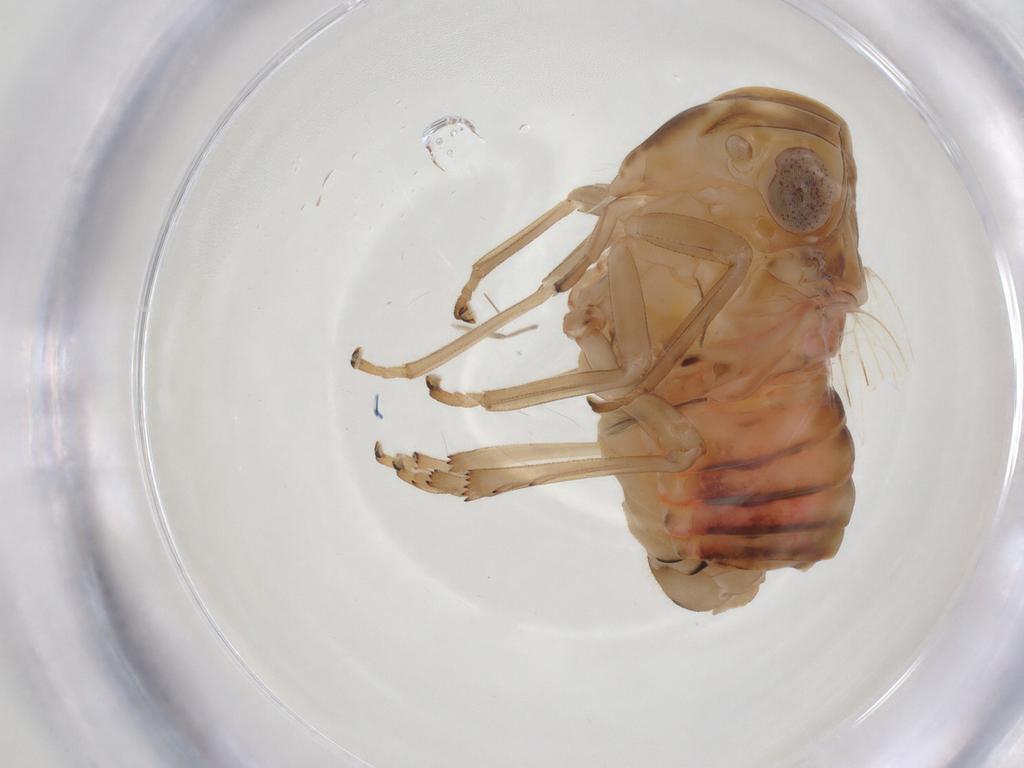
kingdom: Animalia
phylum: Arthropoda
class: Insecta
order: Hemiptera
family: Tropiduchidae
